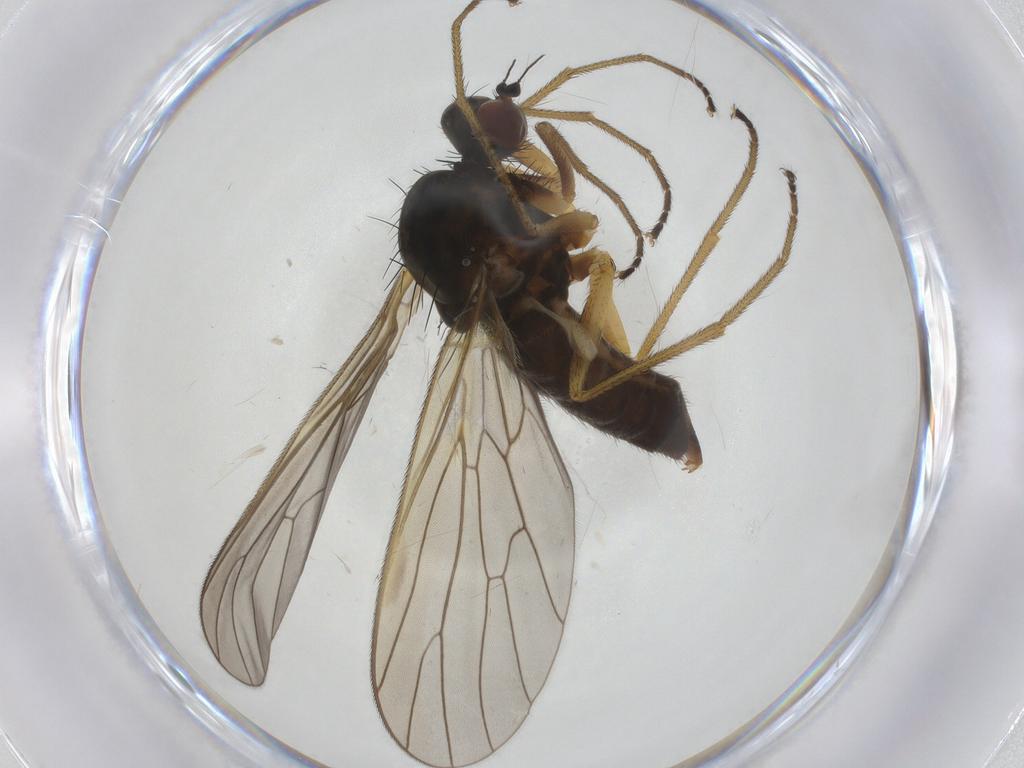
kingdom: Animalia
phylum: Arthropoda
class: Insecta
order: Diptera
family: Brachystomatidae
